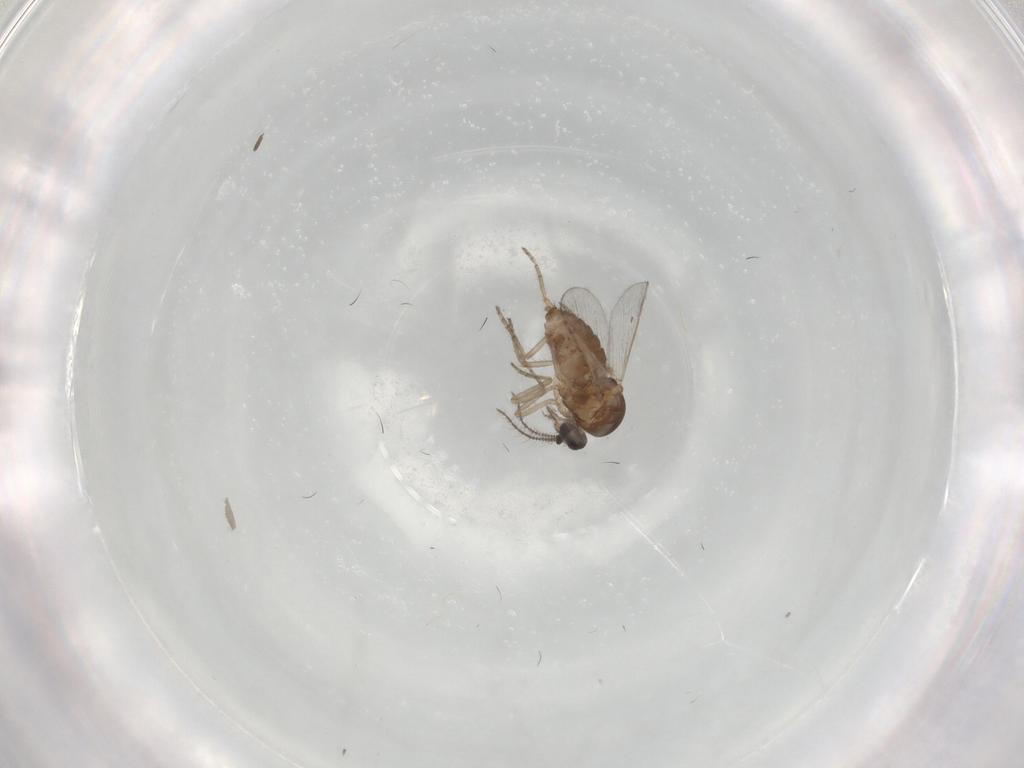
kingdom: Animalia
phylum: Arthropoda
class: Insecta
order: Diptera
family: Ceratopogonidae
